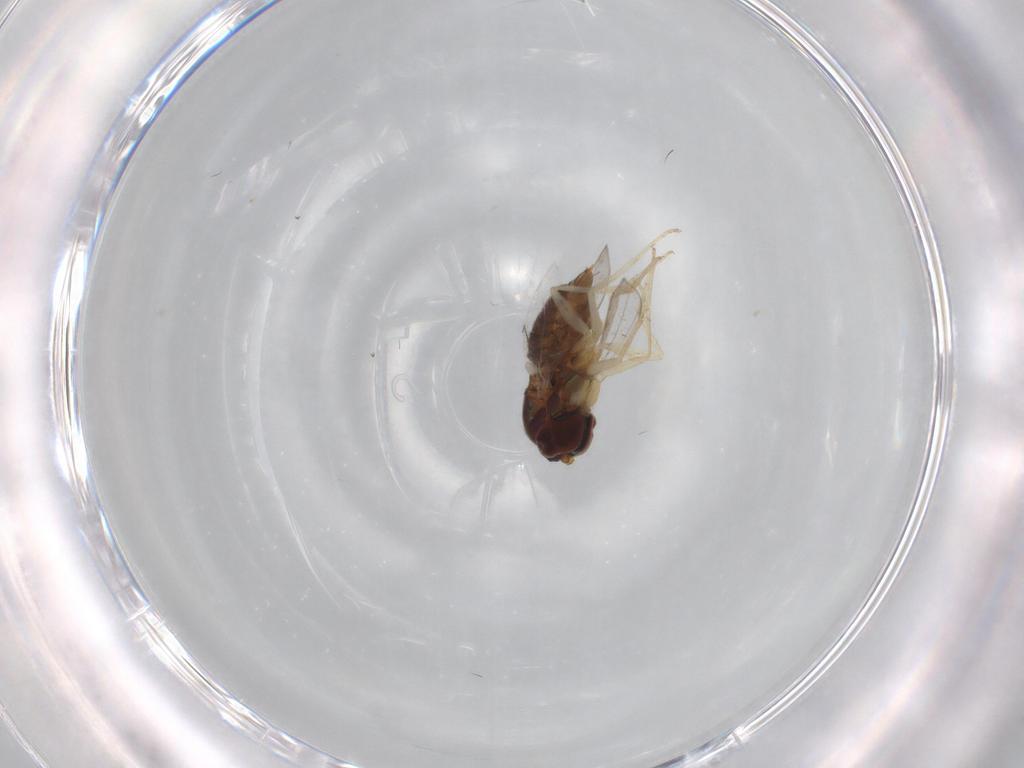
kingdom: Animalia
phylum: Arthropoda
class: Insecta
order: Diptera
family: Dolichopodidae
